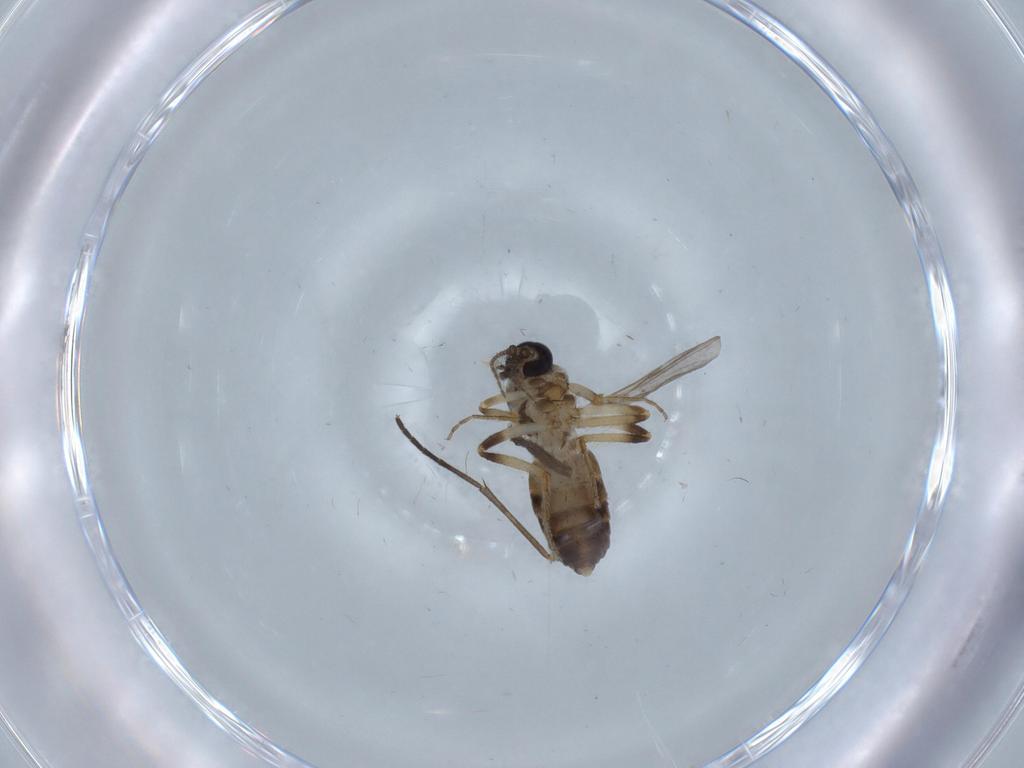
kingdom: Animalia
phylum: Arthropoda
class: Insecta
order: Diptera
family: Ceratopogonidae
